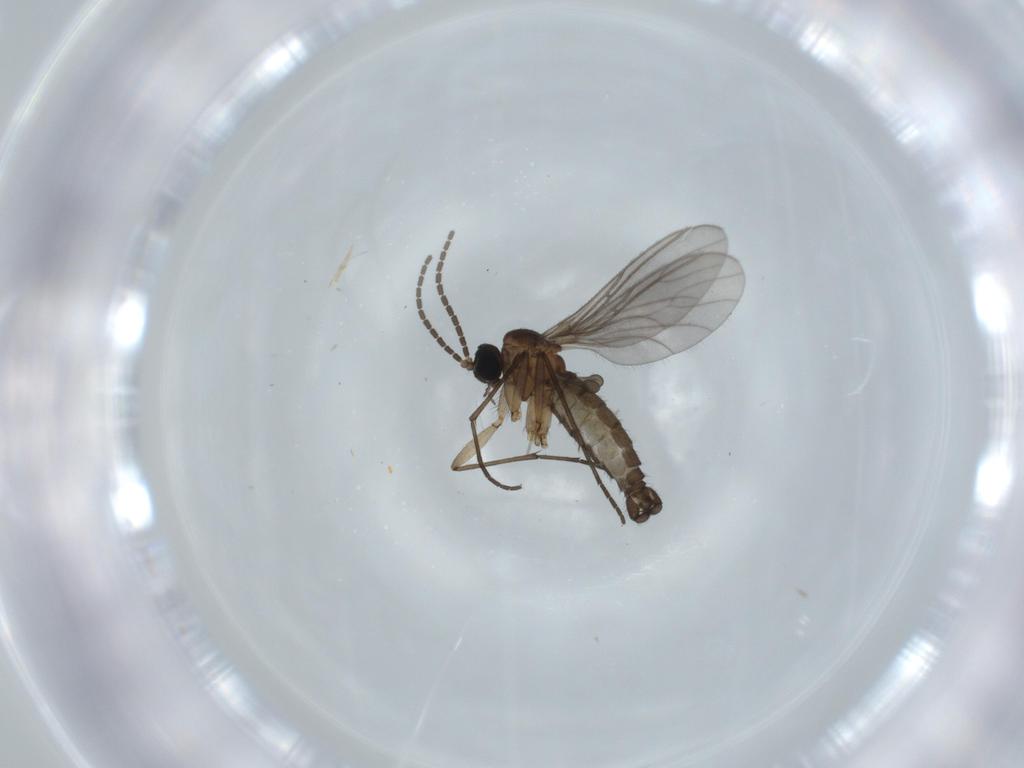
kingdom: Animalia
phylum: Arthropoda
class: Insecta
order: Diptera
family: Sciaridae
